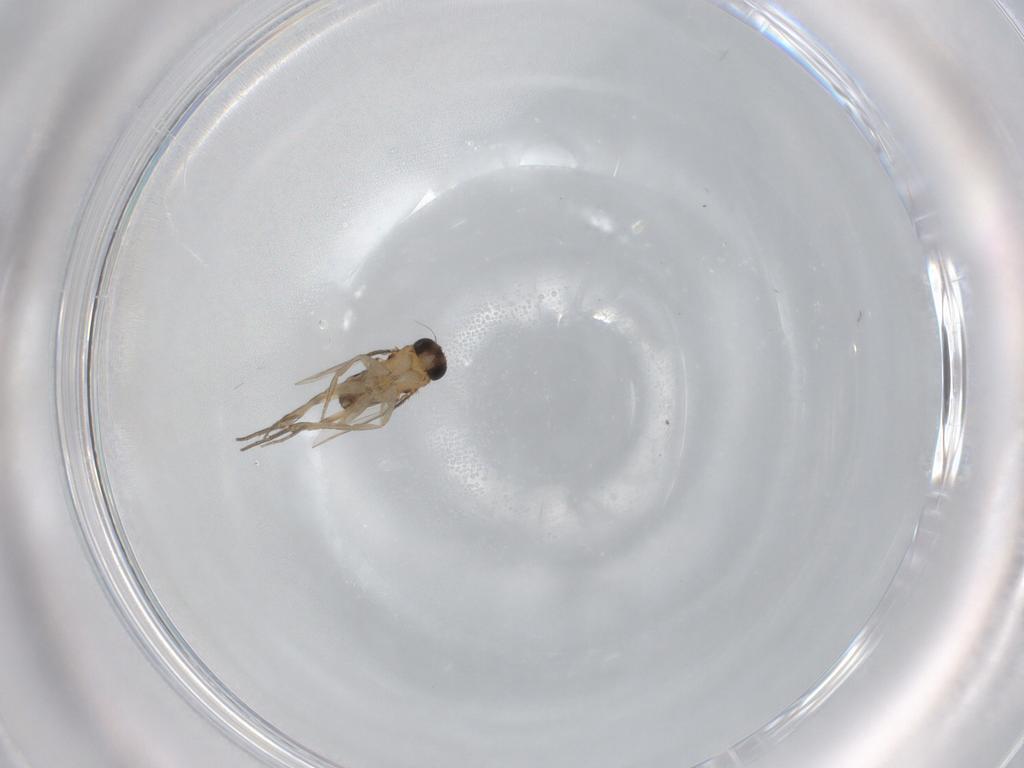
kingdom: Animalia
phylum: Arthropoda
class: Insecta
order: Diptera
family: Phoridae
